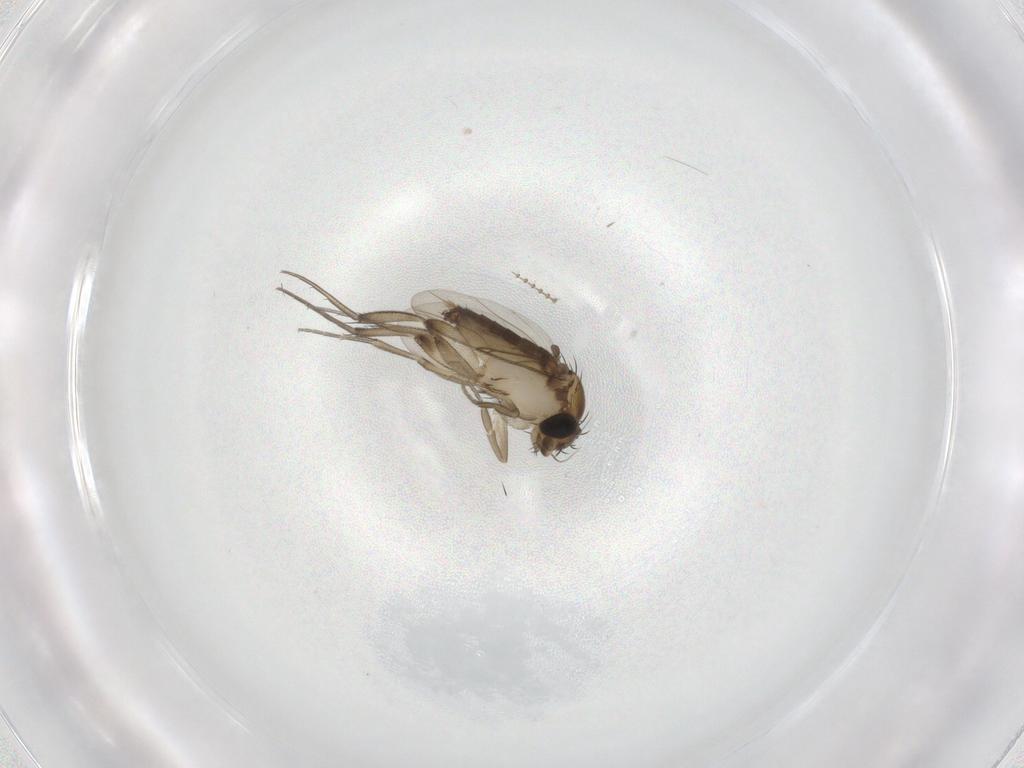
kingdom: Animalia
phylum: Arthropoda
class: Insecta
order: Diptera
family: Phoridae
